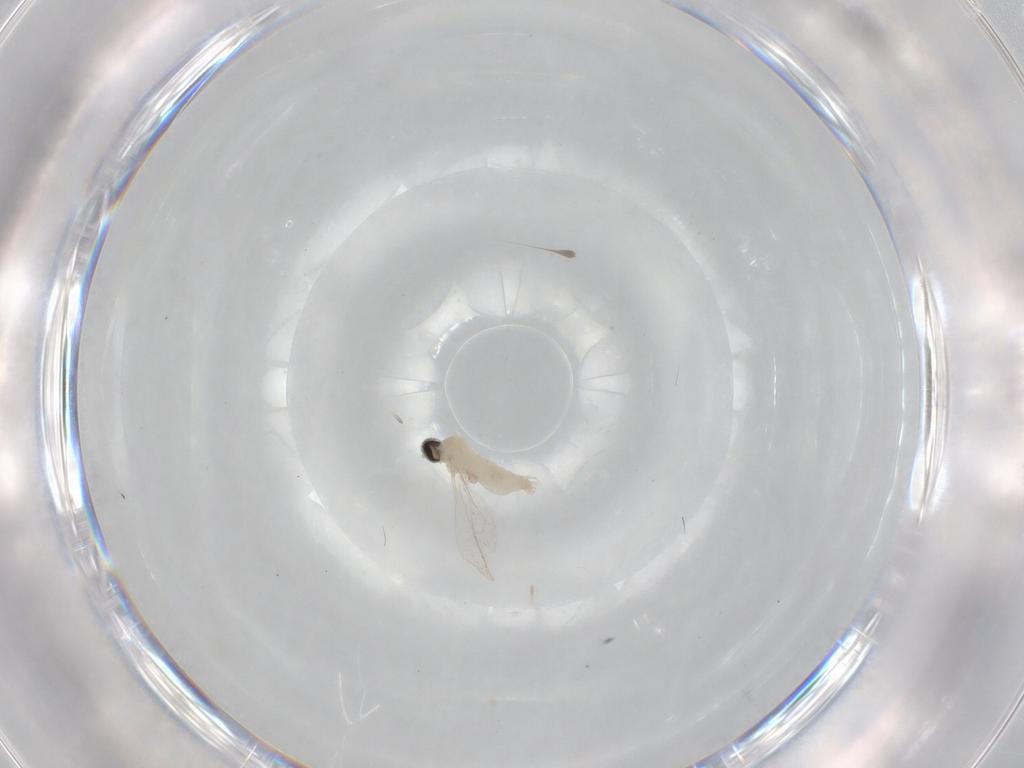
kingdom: Animalia
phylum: Arthropoda
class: Insecta
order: Diptera
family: Cecidomyiidae
